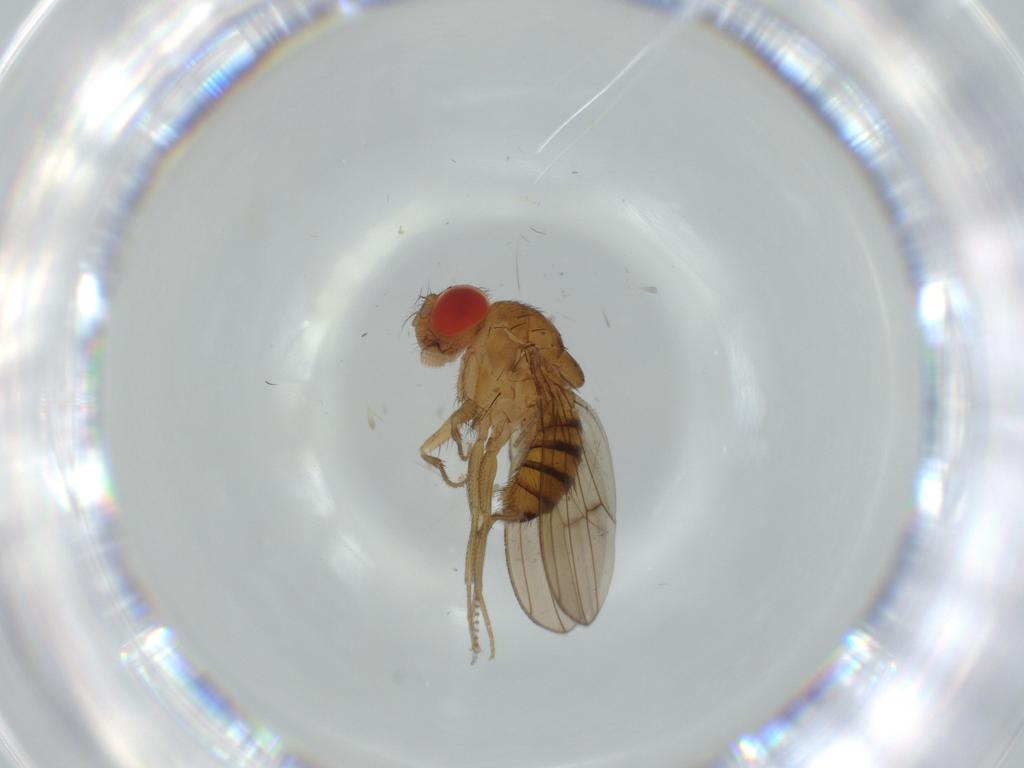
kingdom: Animalia
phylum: Arthropoda
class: Insecta
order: Diptera
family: Drosophilidae
